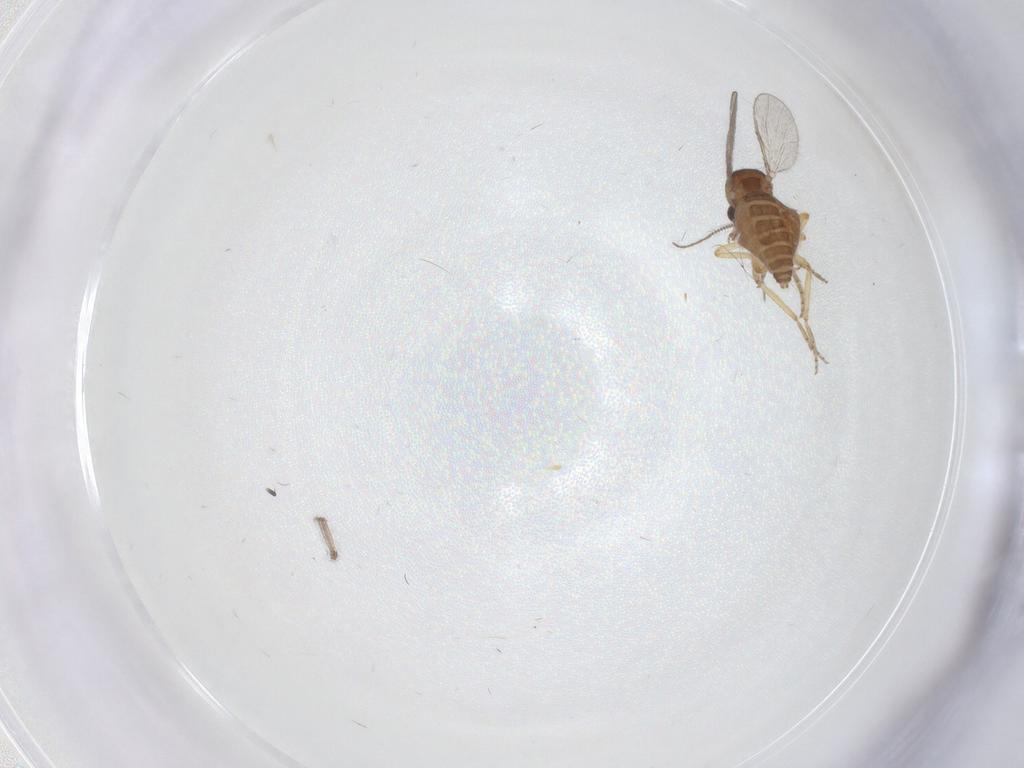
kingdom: Animalia
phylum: Arthropoda
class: Insecta
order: Diptera
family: Ceratopogonidae
